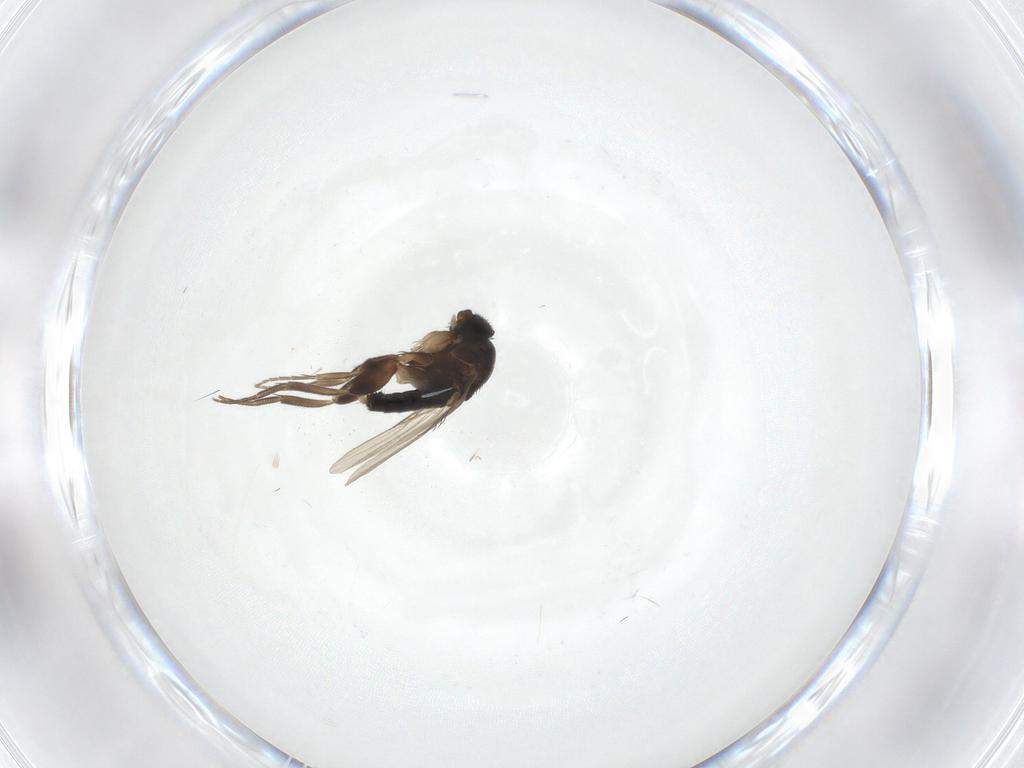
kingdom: Animalia
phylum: Arthropoda
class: Insecta
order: Diptera
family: Phoridae
